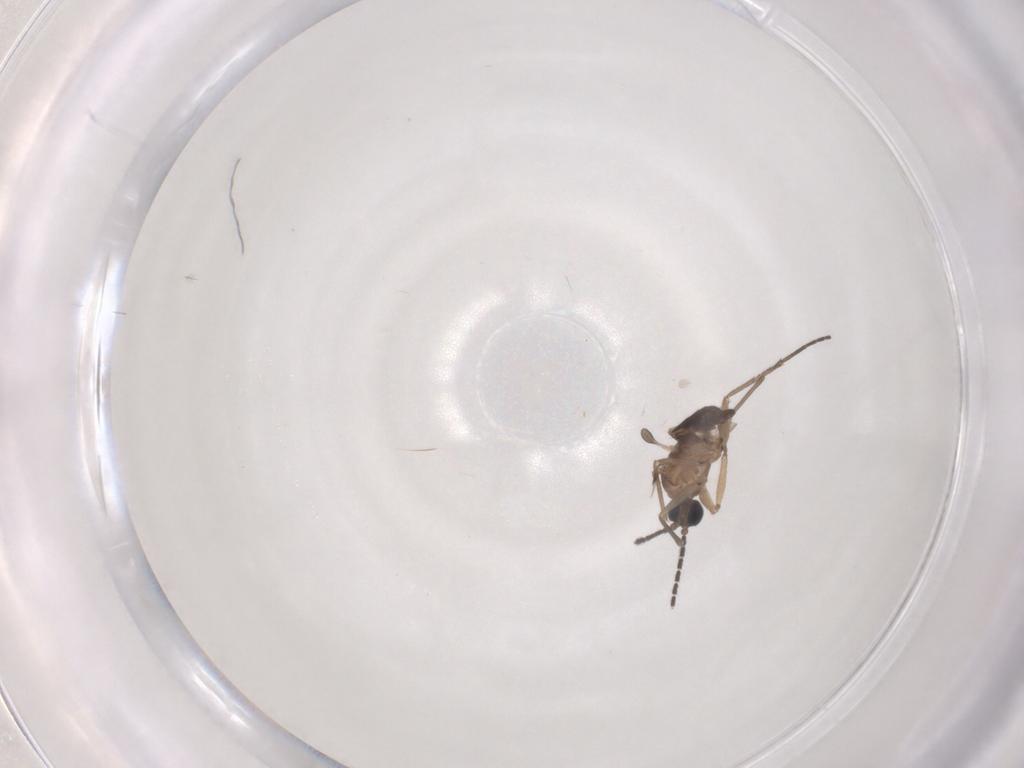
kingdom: Animalia
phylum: Arthropoda
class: Insecta
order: Diptera
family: Sciaridae
